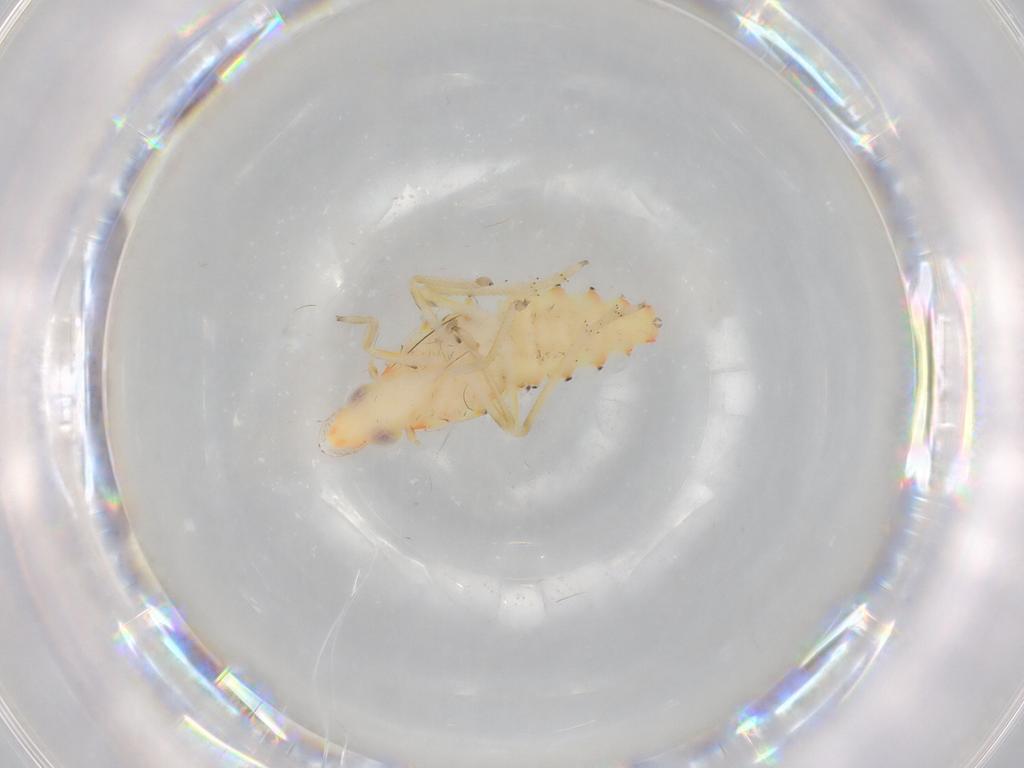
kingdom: Animalia
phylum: Arthropoda
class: Insecta
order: Hemiptera
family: Tropiduchidae
